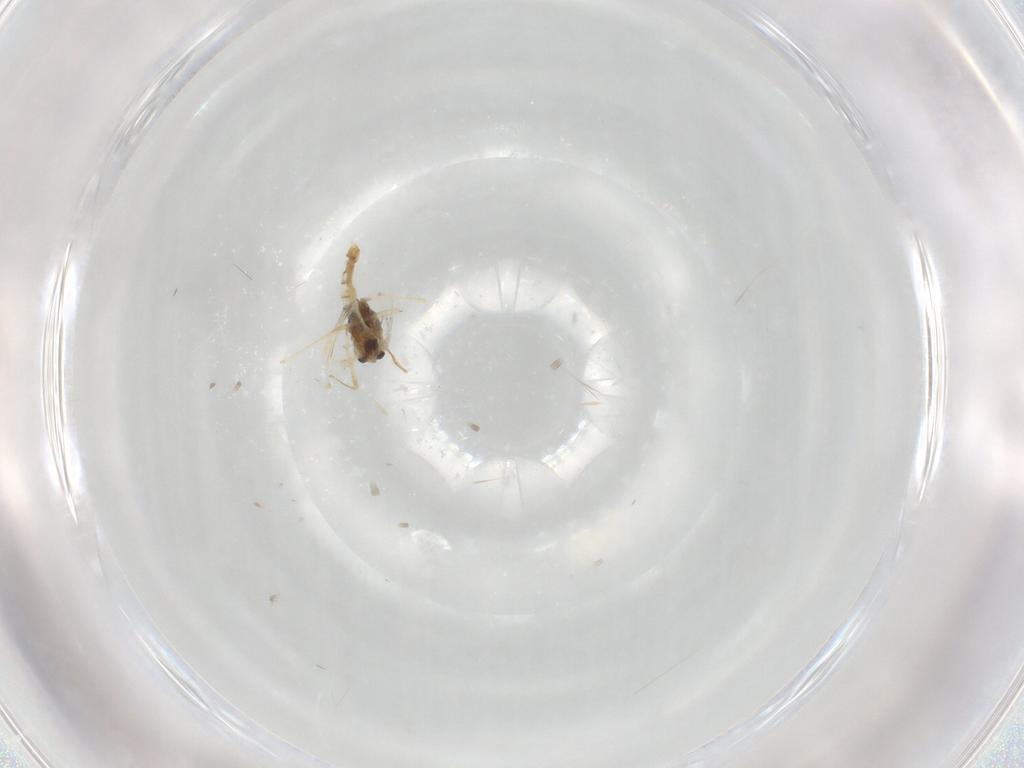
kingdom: Animalia
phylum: Arthropoda
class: Insecta
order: Diptera
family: Chironomidae
